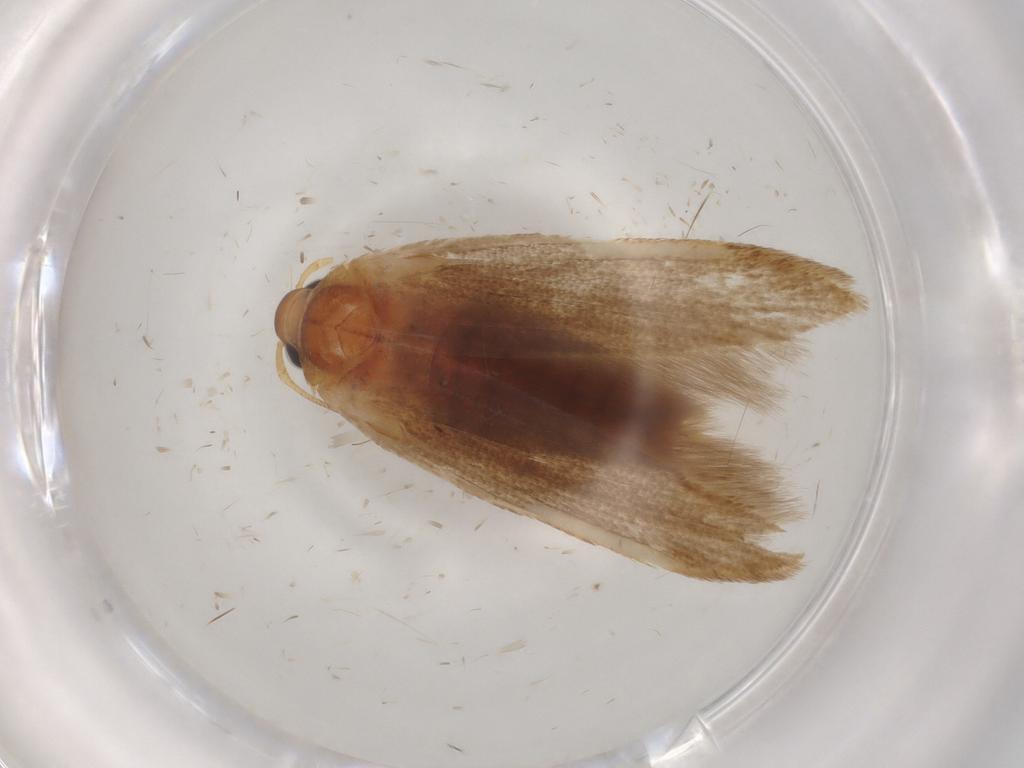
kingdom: Animalia
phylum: Arthropoda
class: Insecta
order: Lepidoptera
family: Blastobasidae
